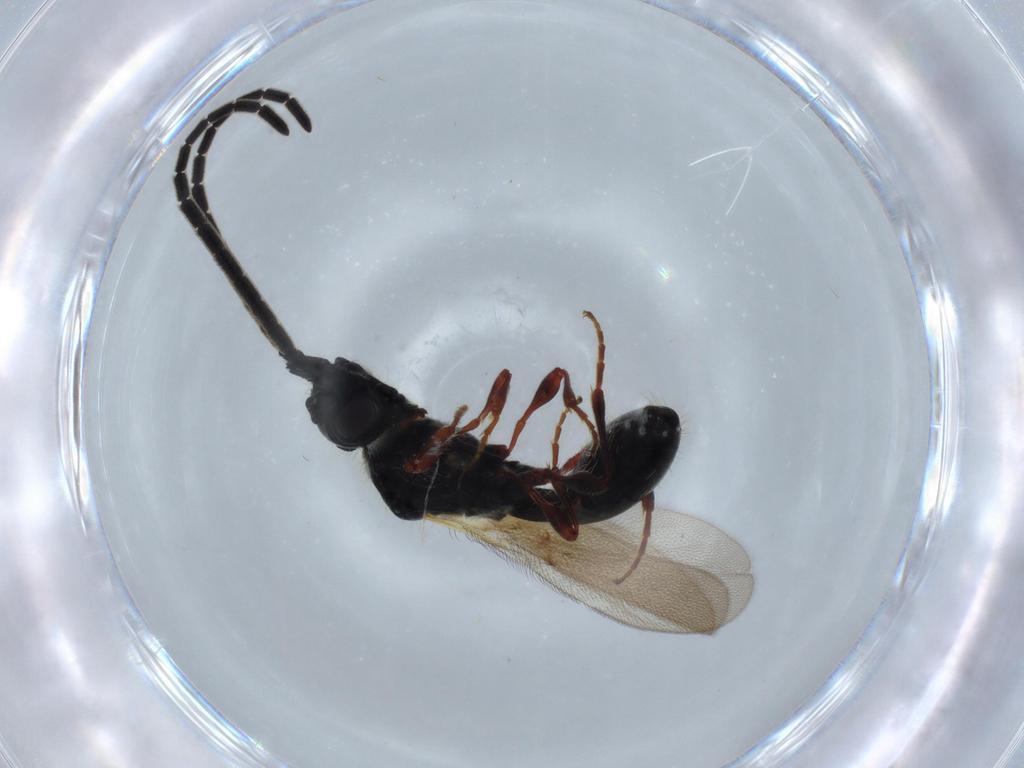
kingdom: Animalia
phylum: Arthropoda
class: Insecta
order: Hymenoptera
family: Diapriidae
